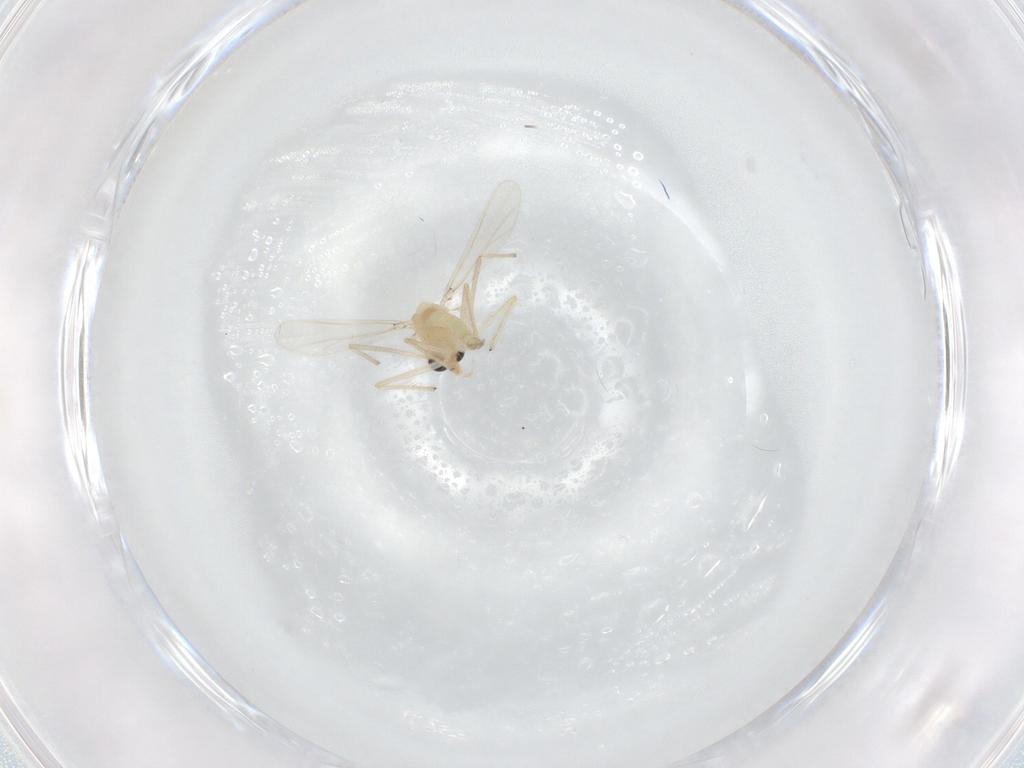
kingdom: Animalia
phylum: Arthropoda
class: Insecta
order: Diptera
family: Chironomidae
